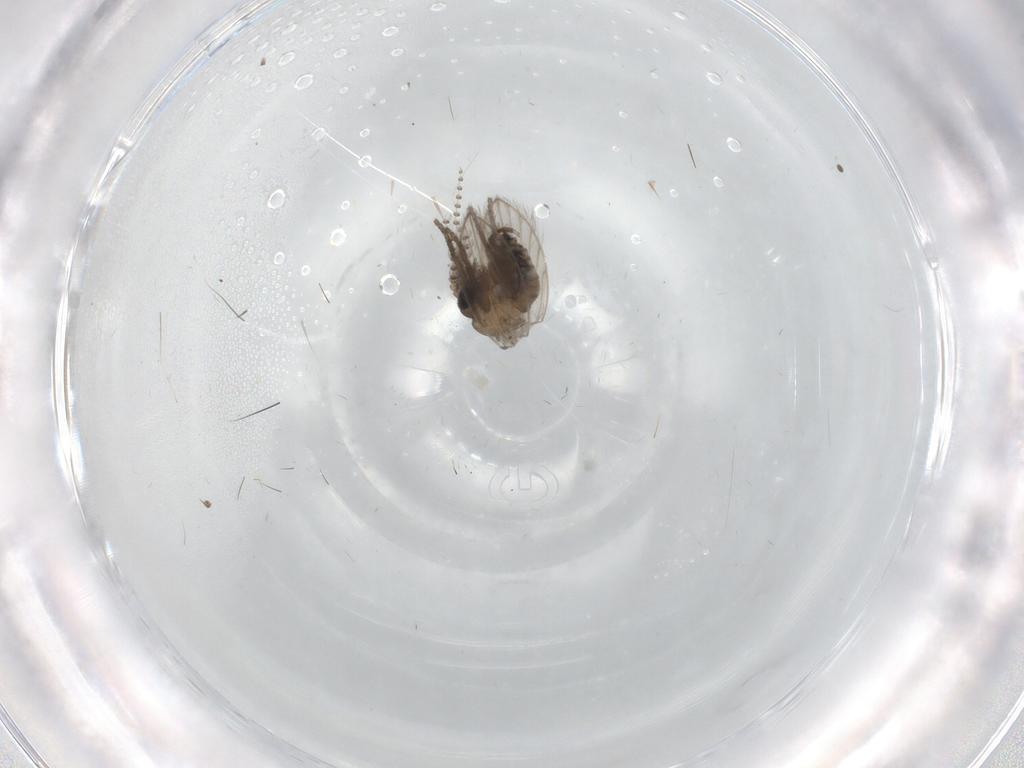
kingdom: Animalia
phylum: Arthropoda
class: Insecta
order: Diptera
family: Psychodidae
